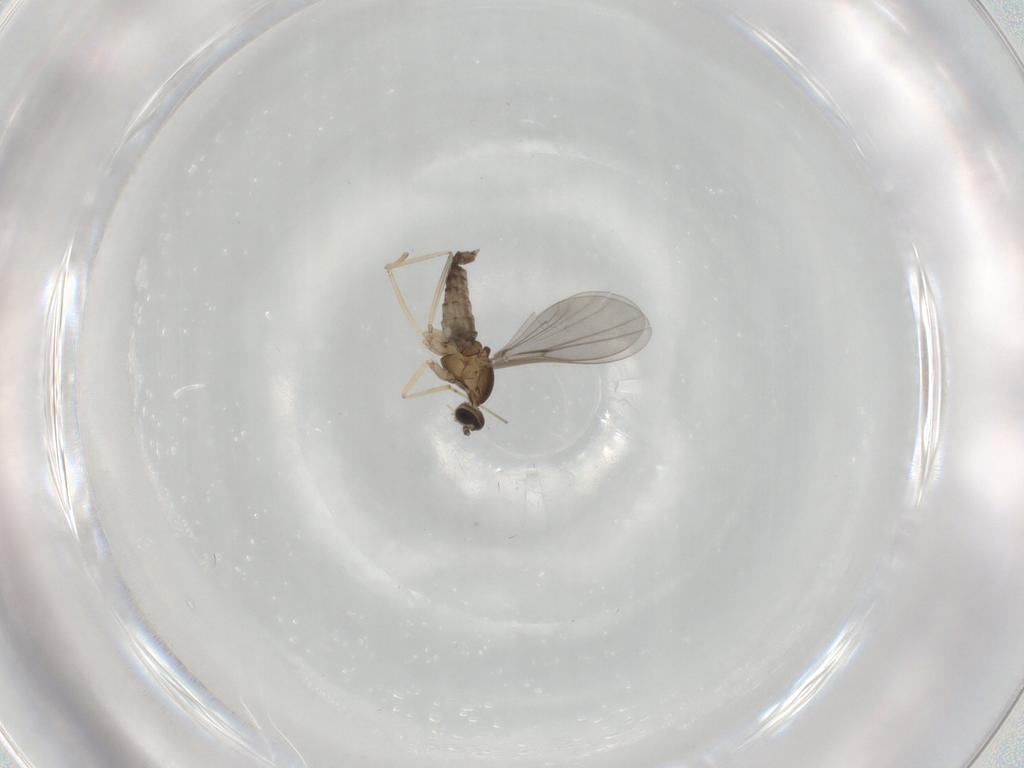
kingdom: Animalia
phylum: Arthropoda
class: Insecta
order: Diptera
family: Cecidomyiidae
